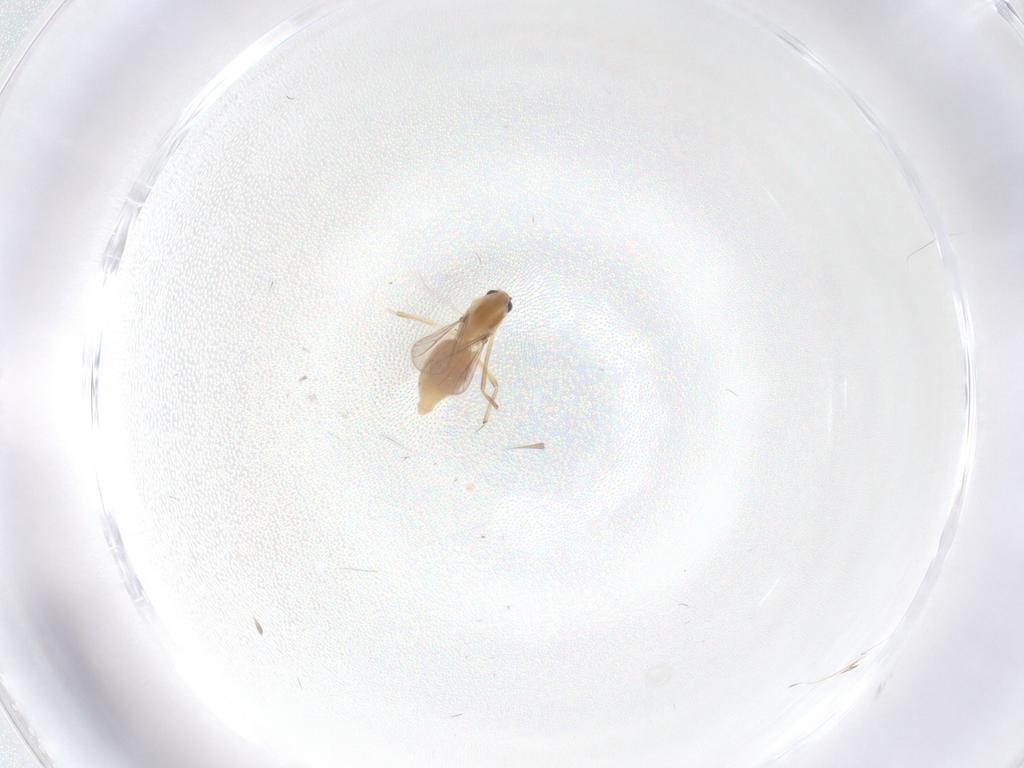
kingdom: Animalia
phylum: Arthropoda
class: Insecta
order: Diptera
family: Chironomidae
